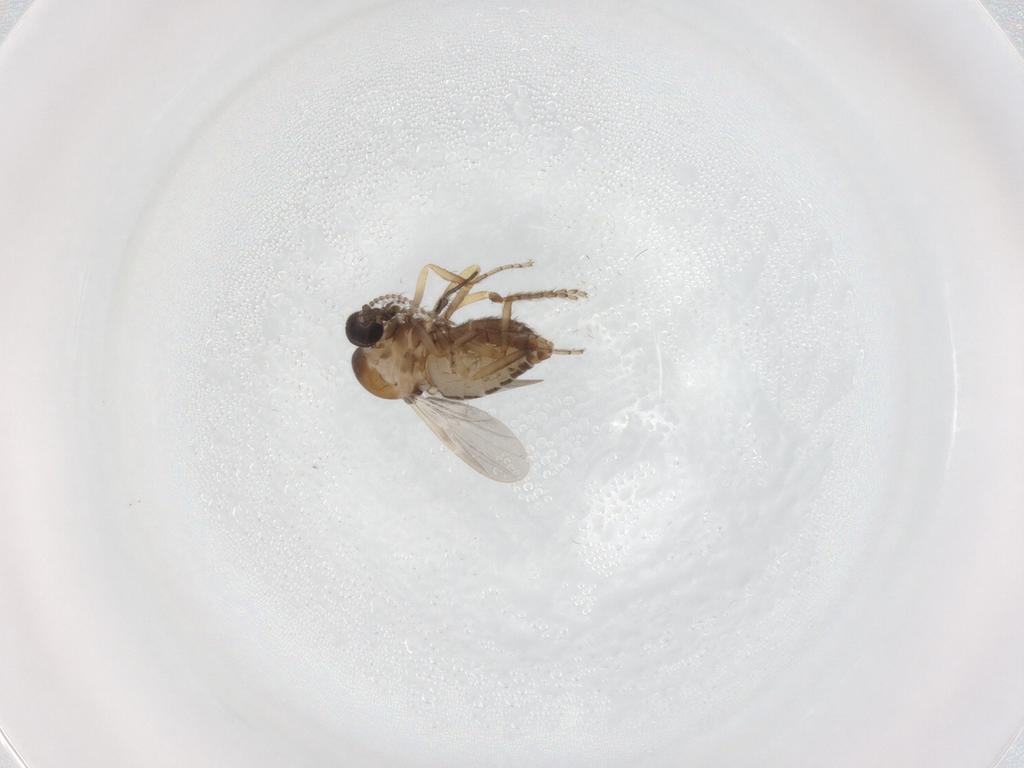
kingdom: Animalia
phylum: Arthropoda
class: Insecta
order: Diptera
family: Ceratopogonidae
